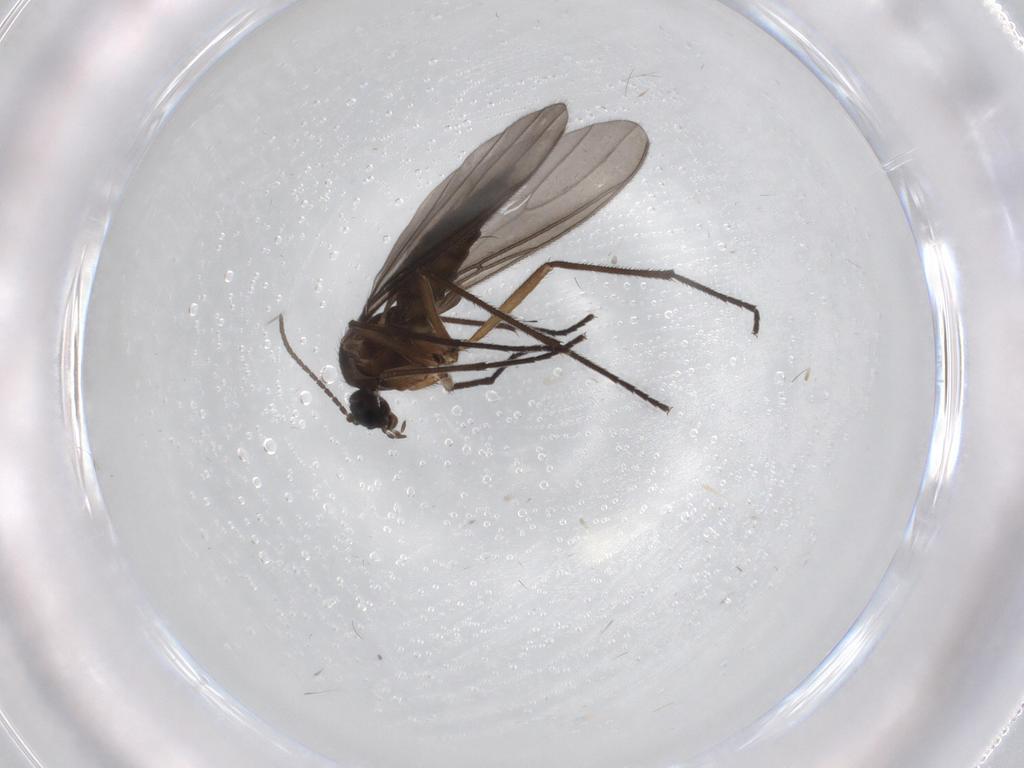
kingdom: Animalia
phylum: Arthropoda
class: Insecta
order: Diptera
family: Sciaridae
